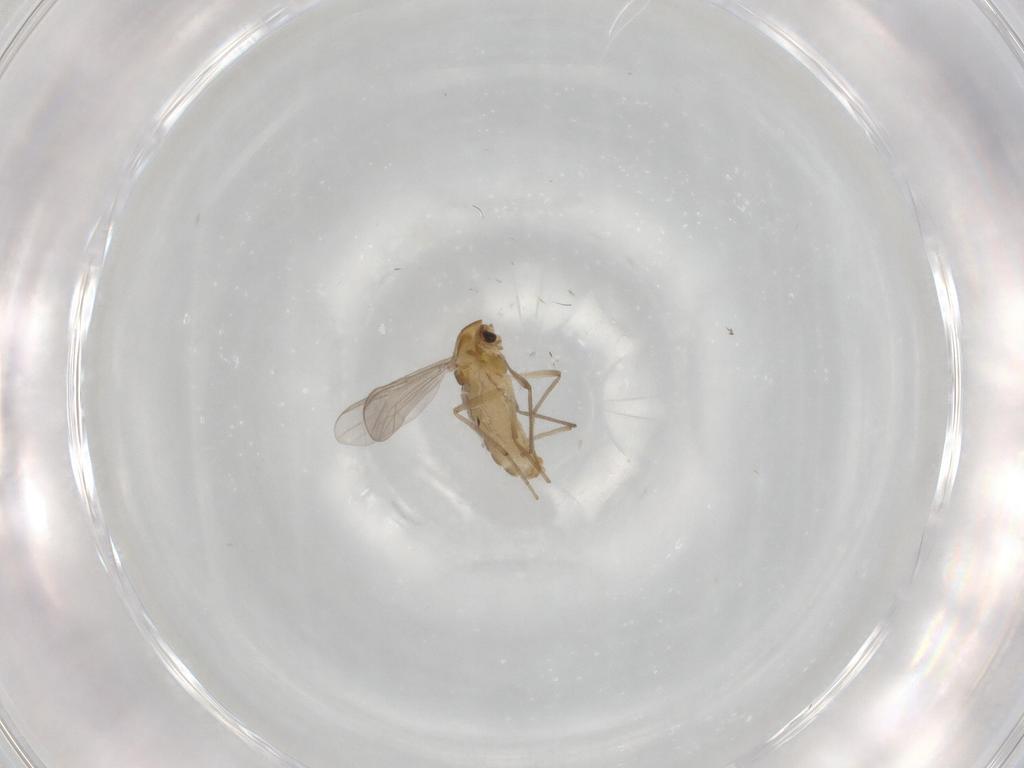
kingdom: Animalia
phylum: Arthropoda
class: Insecta
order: Diptera
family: Chironomidae
